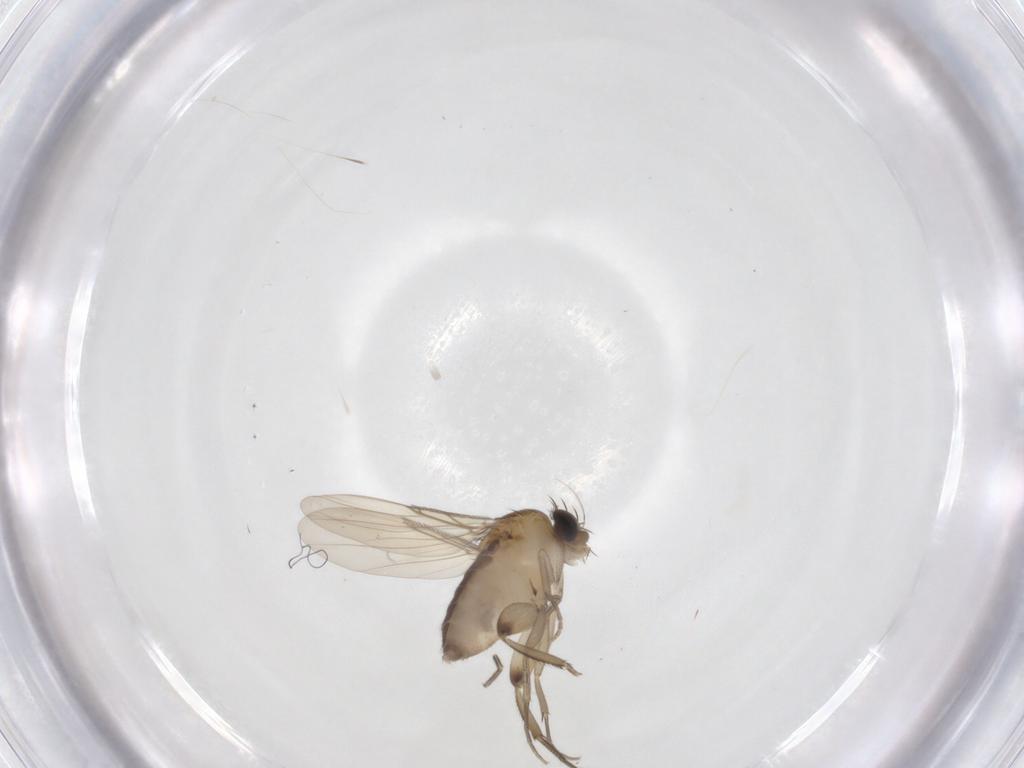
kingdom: Animalia
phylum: Arthropoda
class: Insecta
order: Diptera
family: Phoridae
